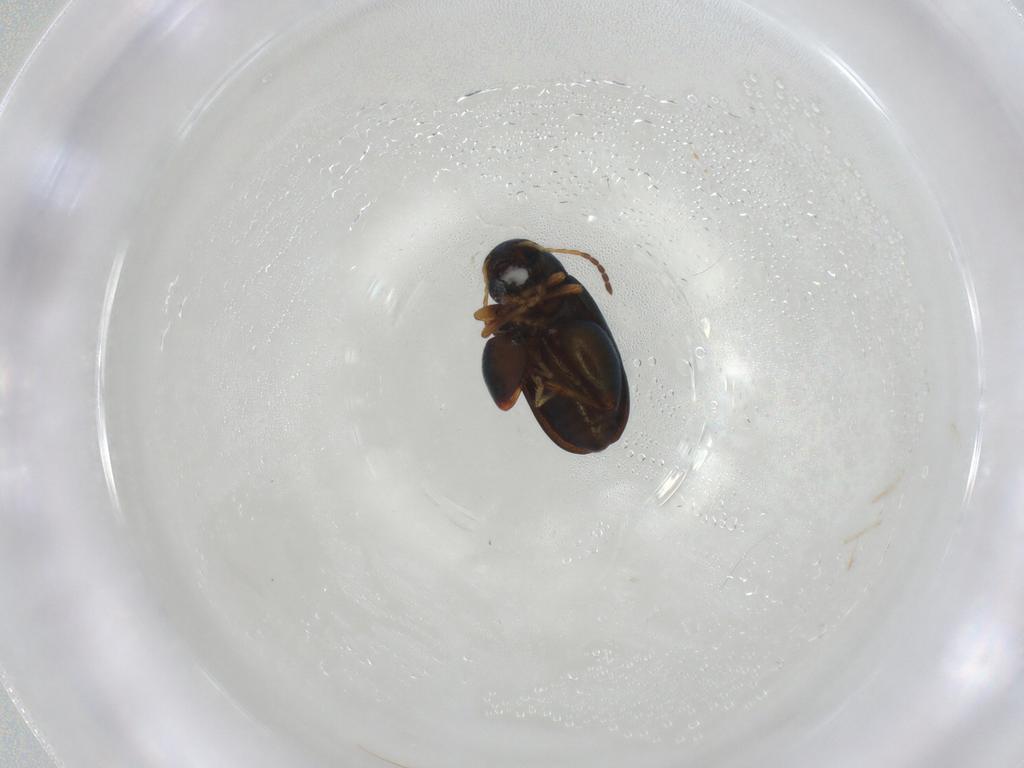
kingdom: Animalia
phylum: Arthropoda
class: Insecta
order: Coleoptera
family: Chrysomelidae
